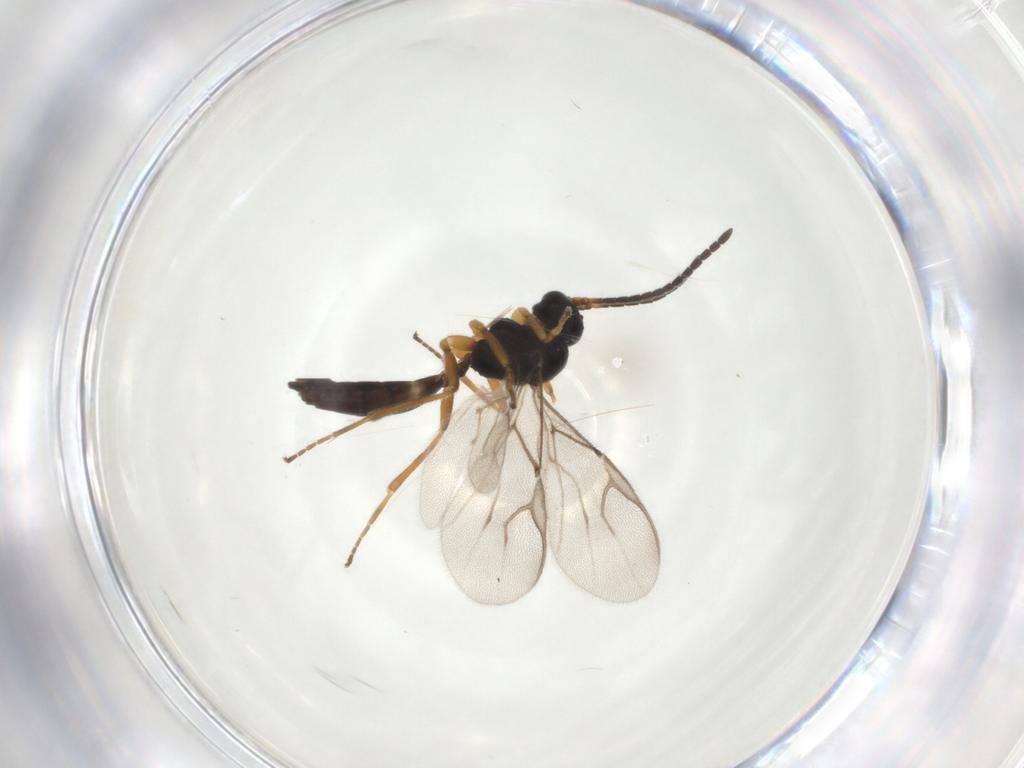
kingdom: Animalia
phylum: Arthropoda
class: Insecta
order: Hymenoptera
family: Braconidae
